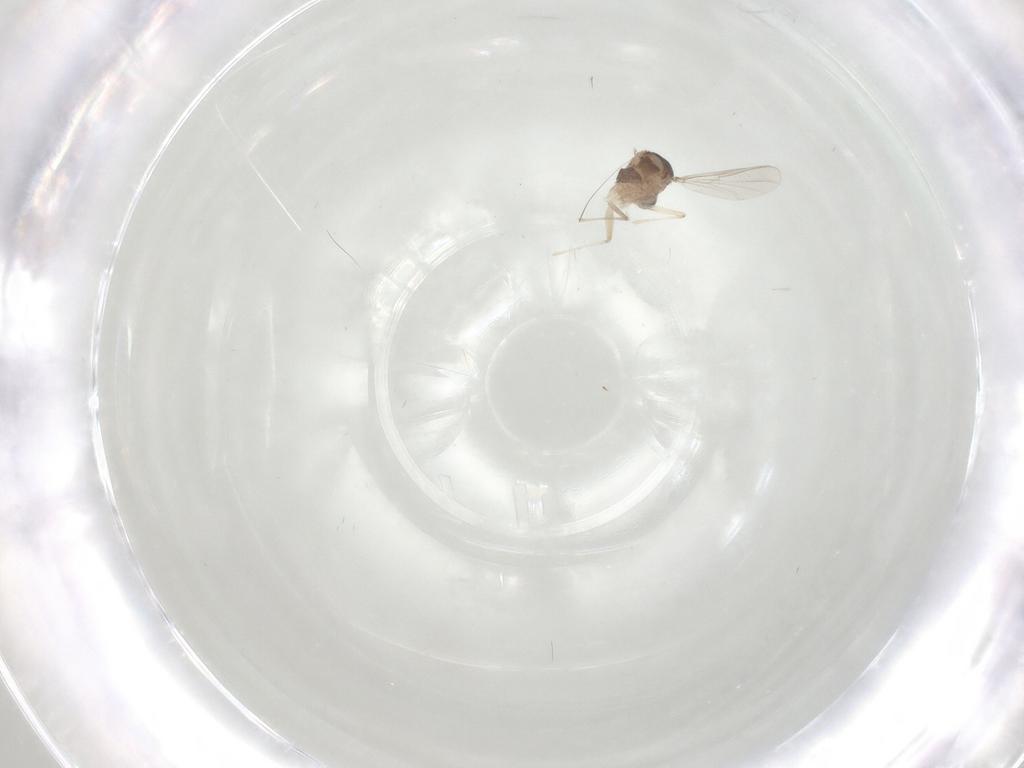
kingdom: Animalia
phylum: Arthropoda
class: Insecta
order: Diptera
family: Chironomidae
